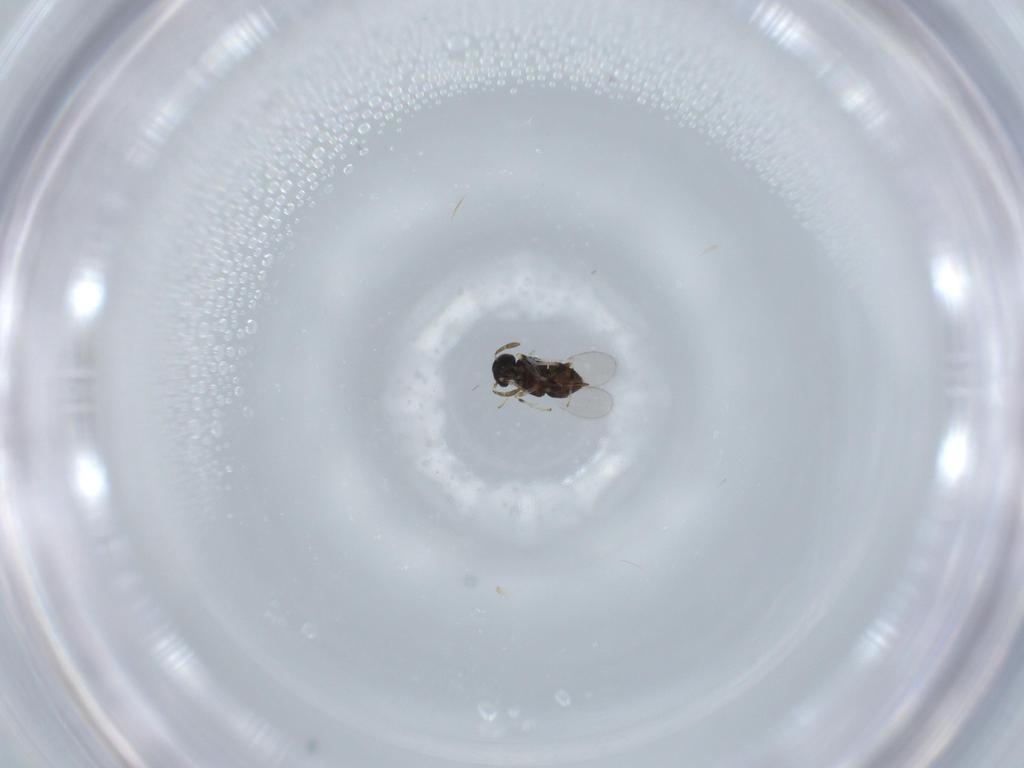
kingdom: Animalia
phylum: Arthropoda
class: Insecta
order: Hymenoptera
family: Aphelinidae
